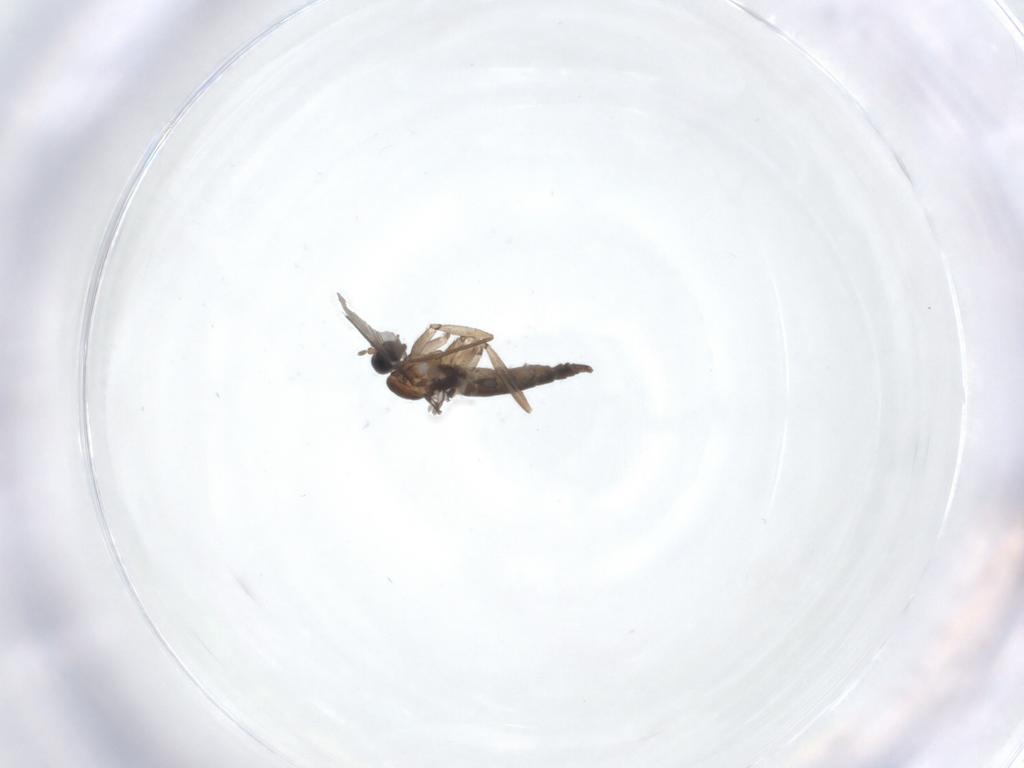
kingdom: Animalia
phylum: Arthropoda
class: Insecta
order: Diptera
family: Sciaridae
